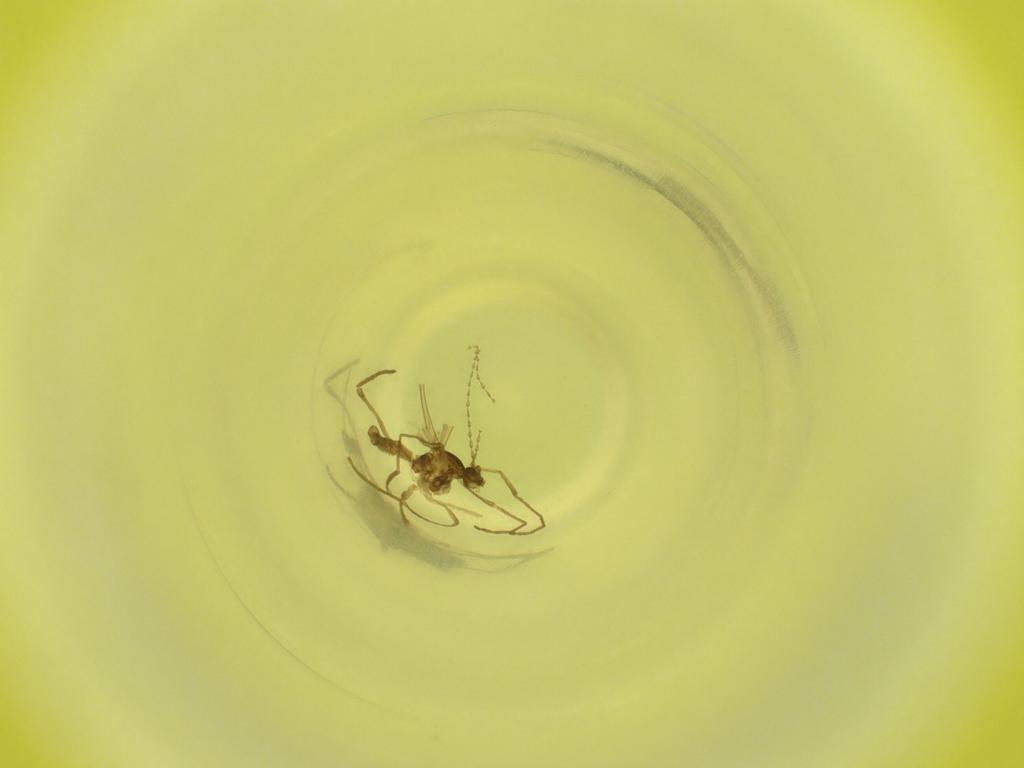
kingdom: Animalia
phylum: Arthropoda
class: Insecta
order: Diptera
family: Cecidomyiidae
